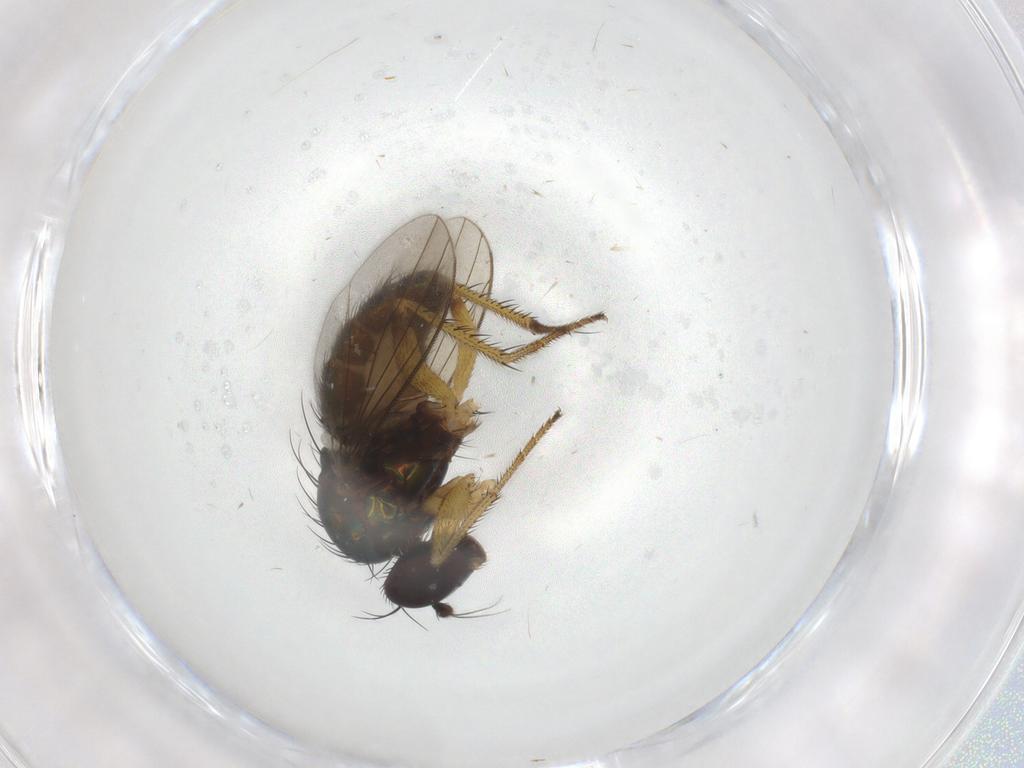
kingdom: Animalia
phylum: Arthropoda
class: Insecta
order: Diptera
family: Dolichopodidae
